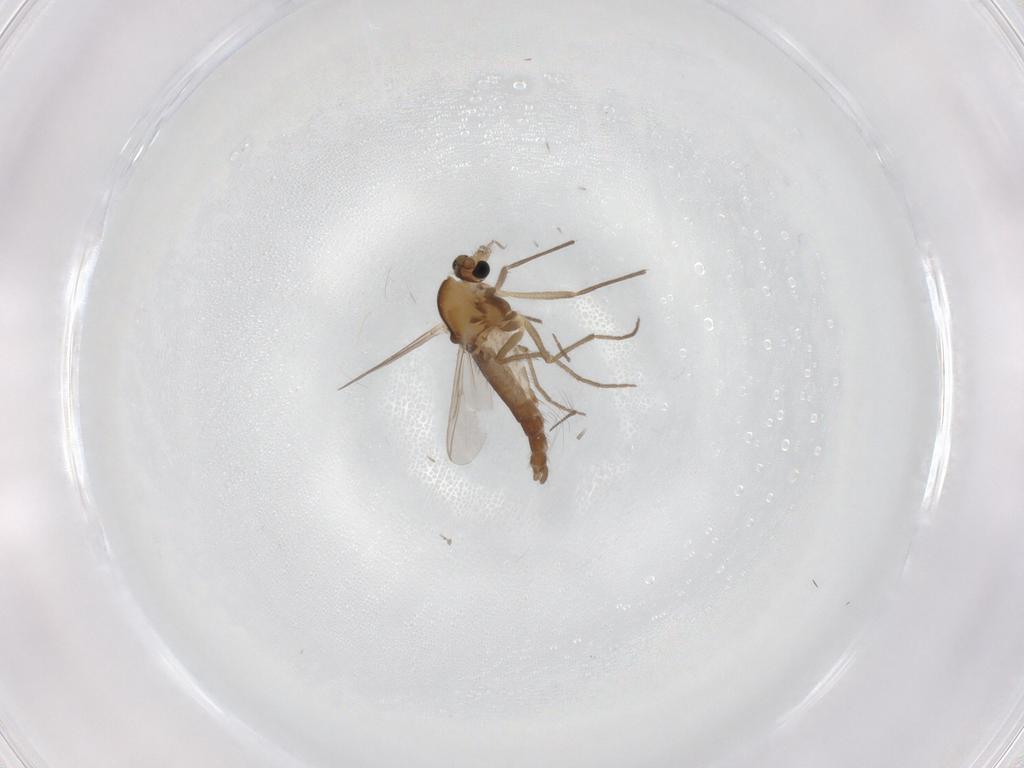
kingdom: Animalia
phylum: Arthropoda
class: Insecta
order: Diptera
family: Chironomidae
